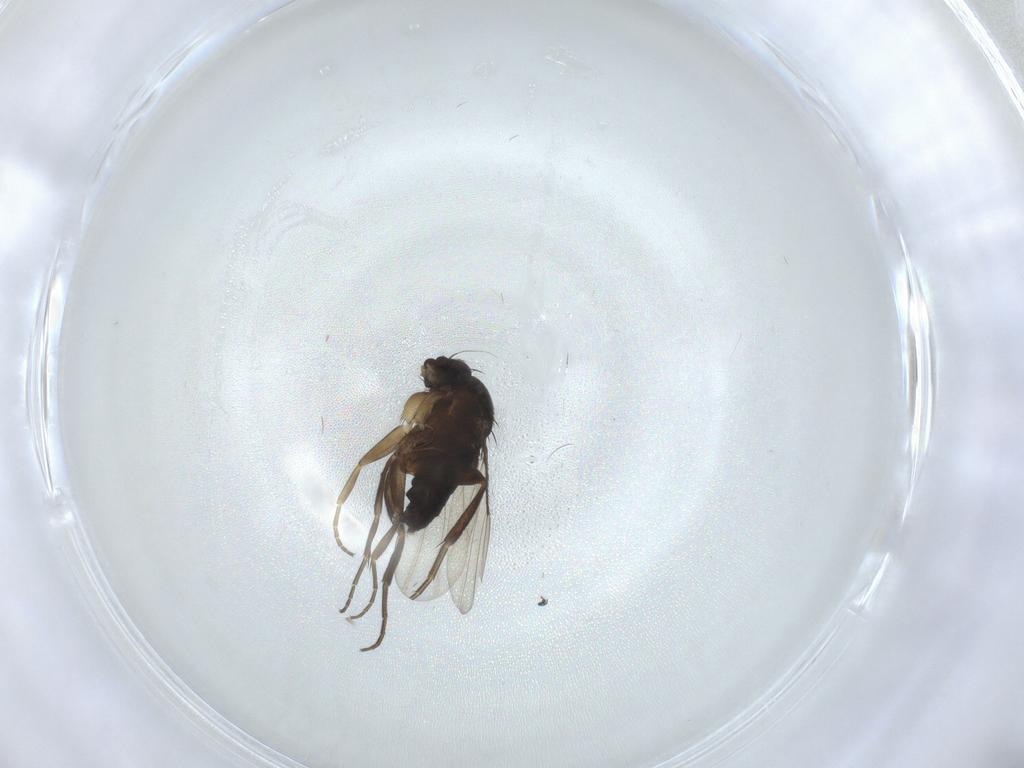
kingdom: Animalia
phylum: Arthropoda
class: Insecta
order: Diptera
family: Phoridae
